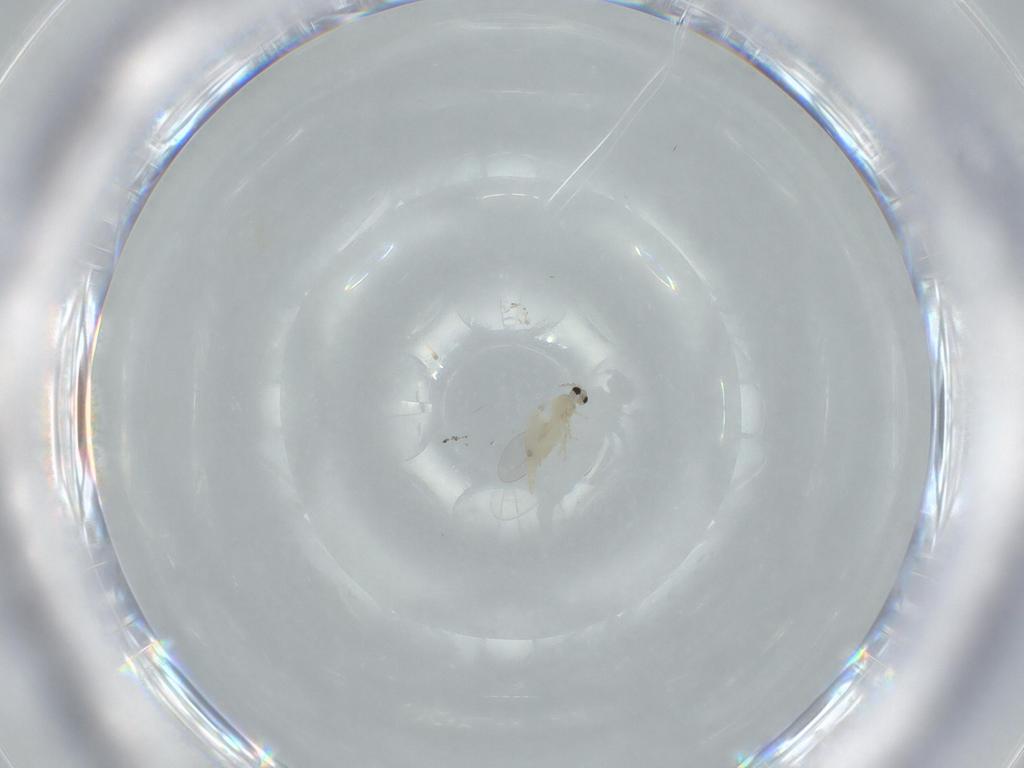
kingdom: Animalia
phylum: Arthropoda
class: Insecta
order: Diptera
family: Cecidomyiidae
